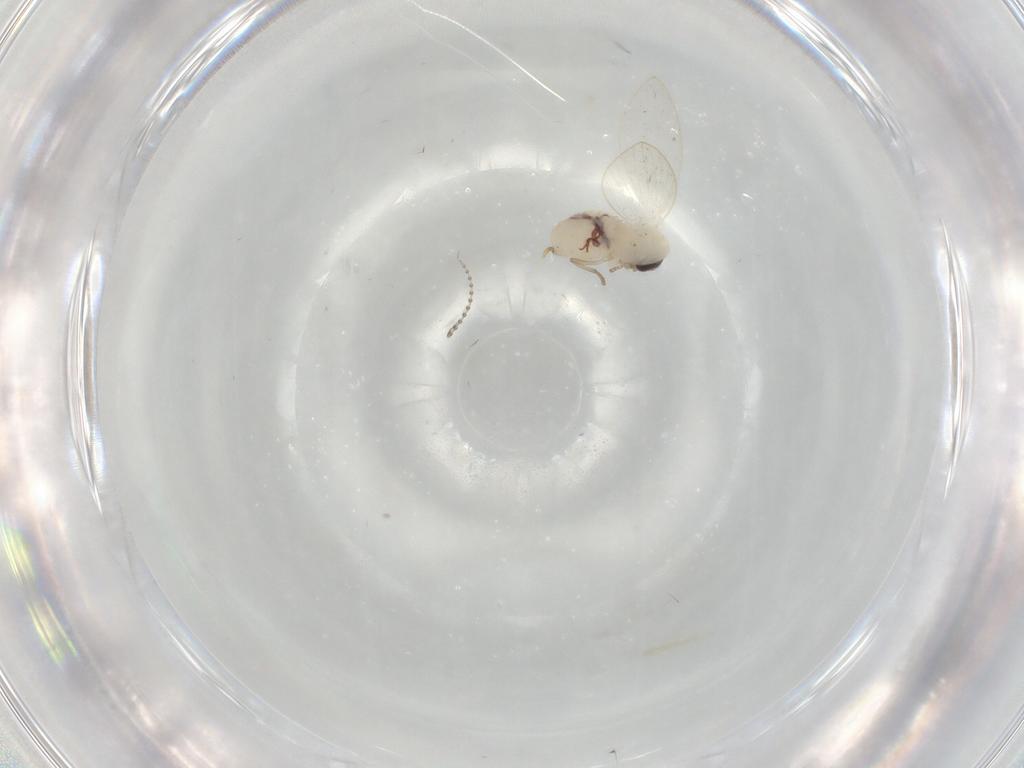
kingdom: Animalia
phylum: Arthropoda
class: Insecta
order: Diptera
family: Psychodidae
